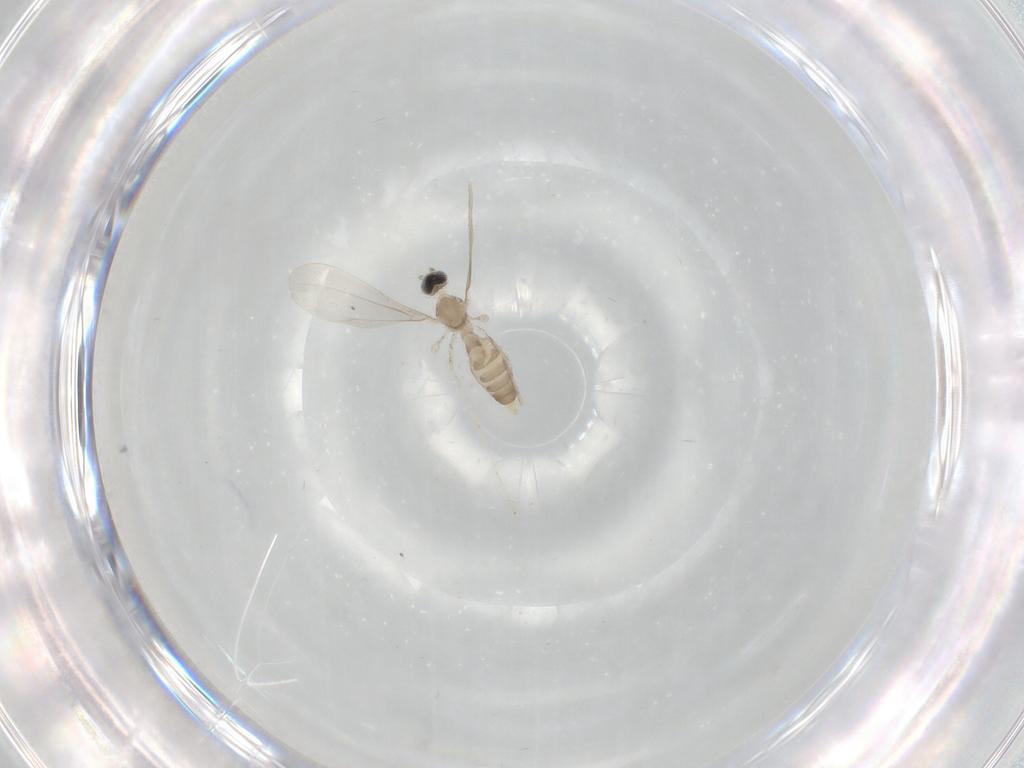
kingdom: Animalia
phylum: Arthropoda
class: Insecta
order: Diptera
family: Cecidomyiidae
